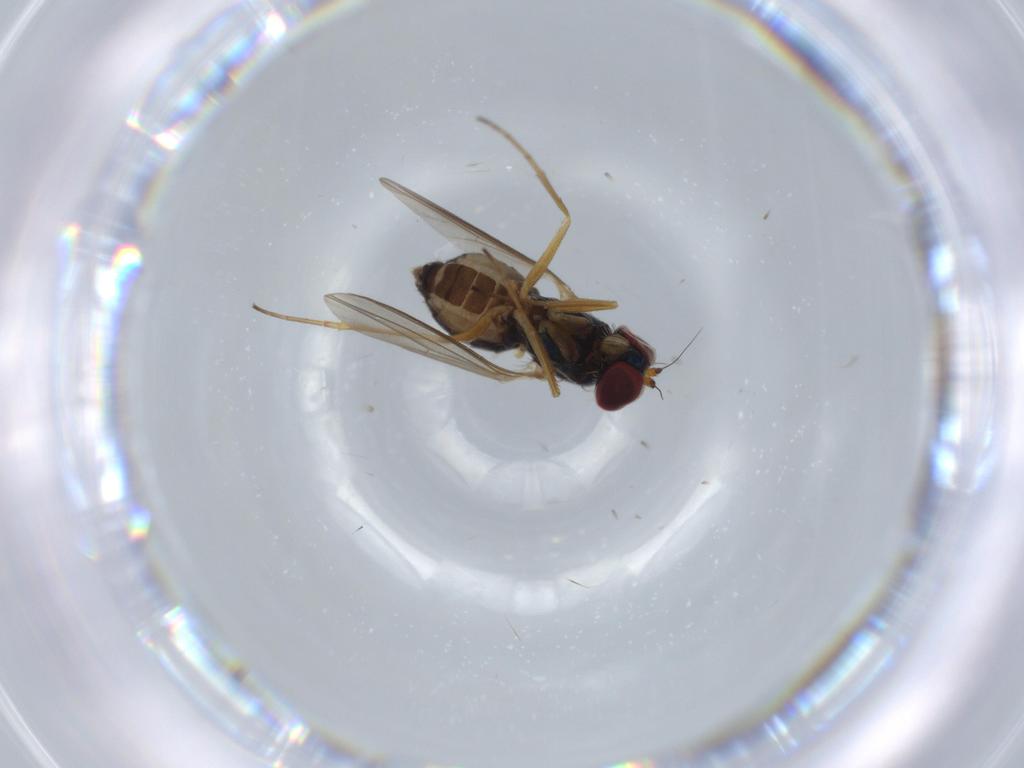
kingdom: Animalia
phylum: Arthropoda
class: Insecta
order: Diptera
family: Dolichopodidae
